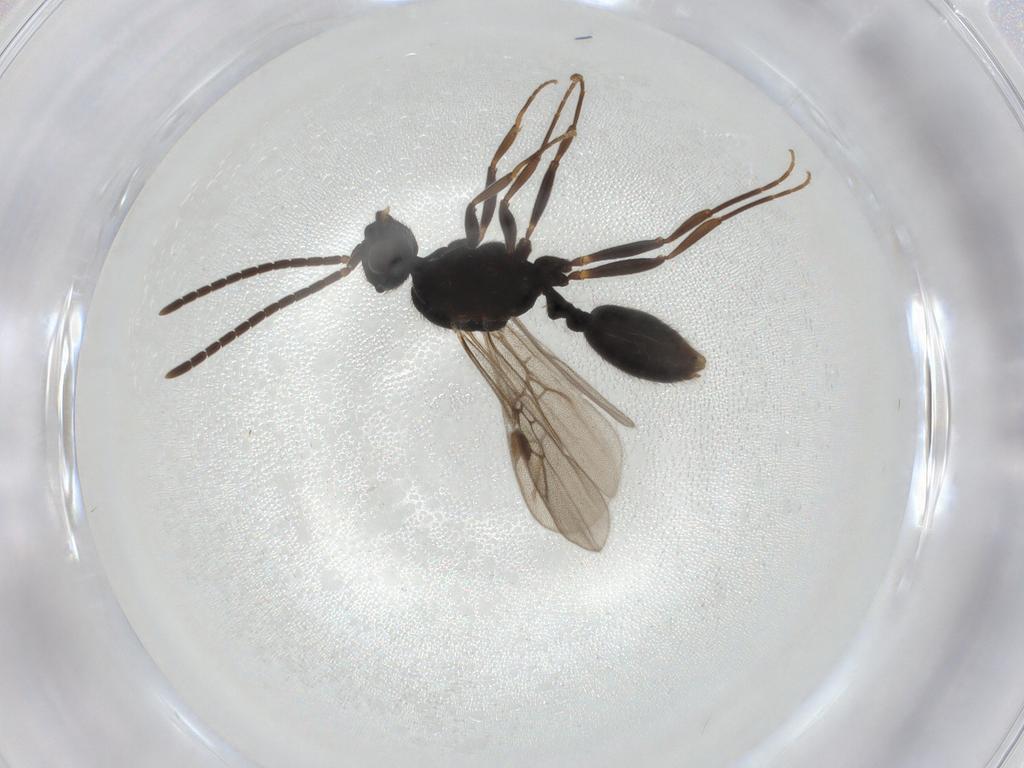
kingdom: Animalia
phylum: Arthropoda
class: Insecta
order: Hymenoptera
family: Formicidae
